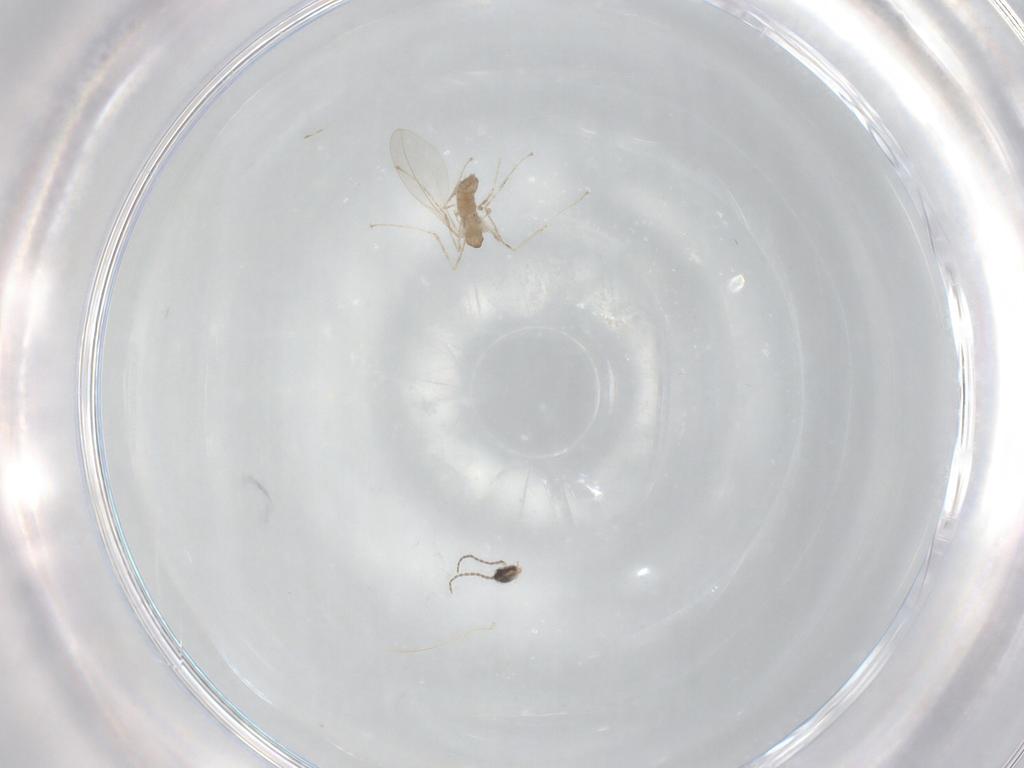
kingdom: Animalia
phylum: Arthropoda
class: Insecta
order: Diptera
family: Cecidomyiidae
